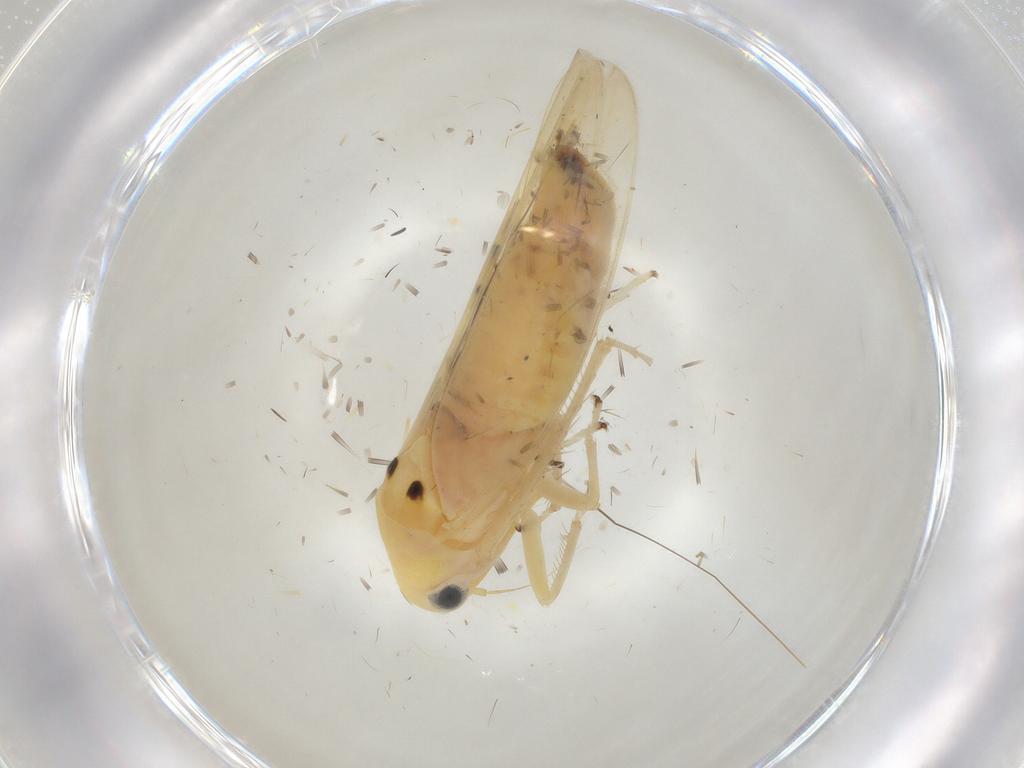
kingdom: Animalia
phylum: Arthropoda
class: Insecta
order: Hemiptera
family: Cicadellidae
